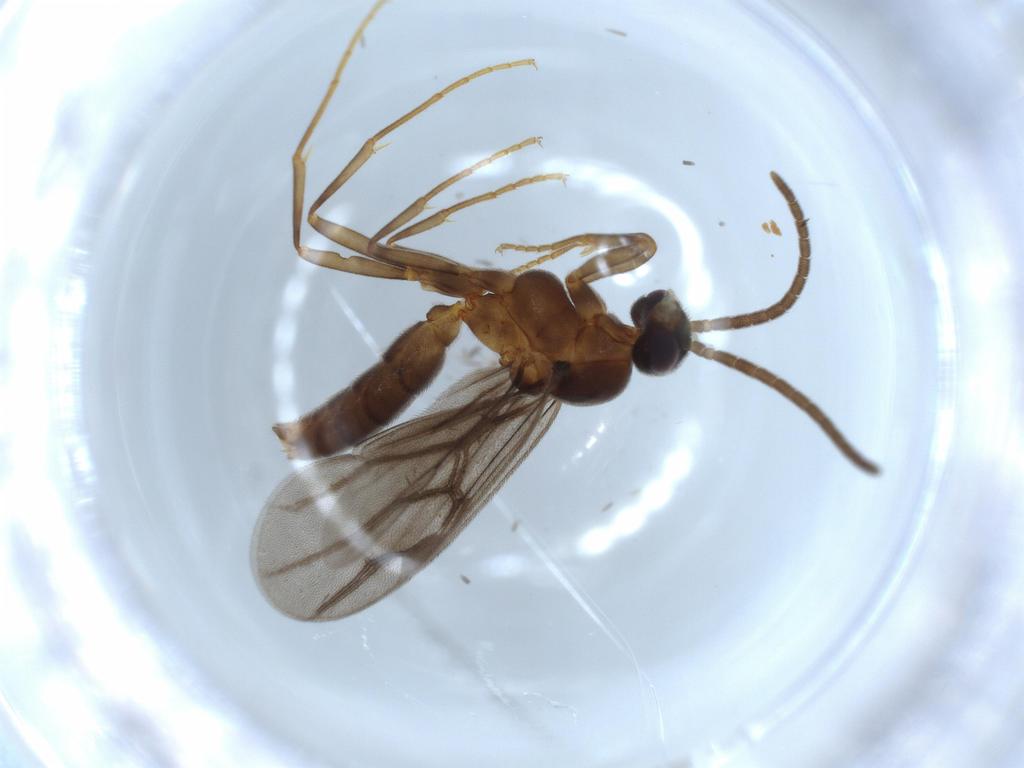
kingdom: Animalia
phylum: Arthropoda
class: Insecta
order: Hymenoptera
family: Formicidae
